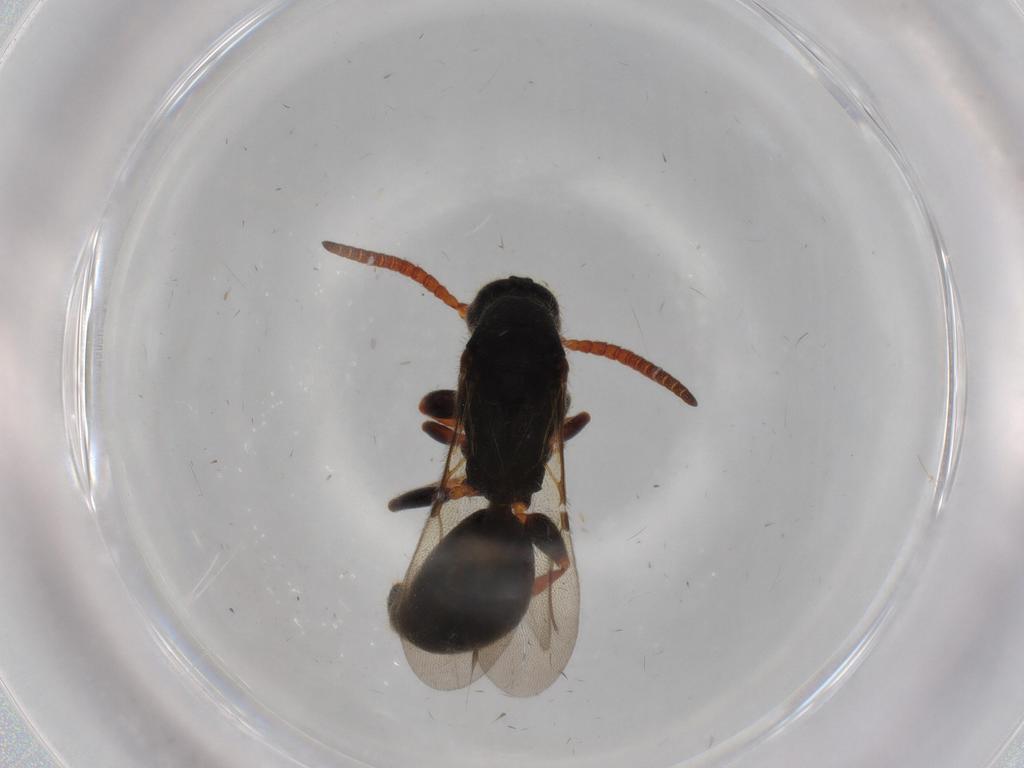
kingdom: Animalia
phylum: Arthropoda
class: Insecta
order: Hymenoptera
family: Bethylidae
